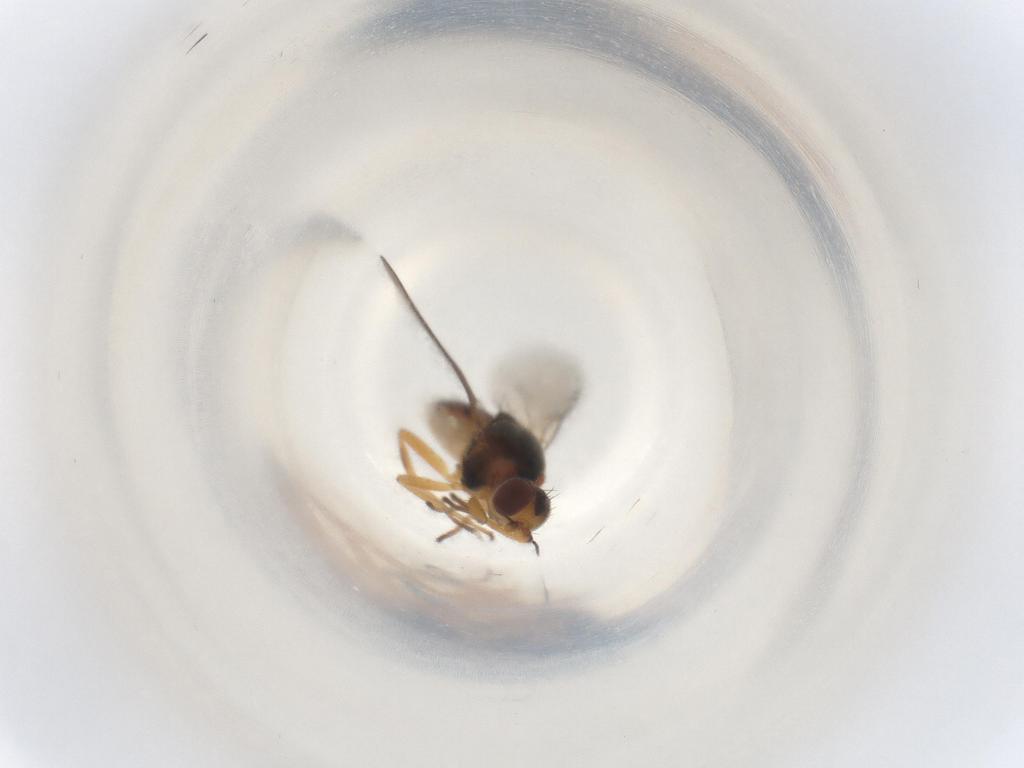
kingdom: Animalia
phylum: Arthropoda
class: Insecta
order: Diptera
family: Chloropidae
